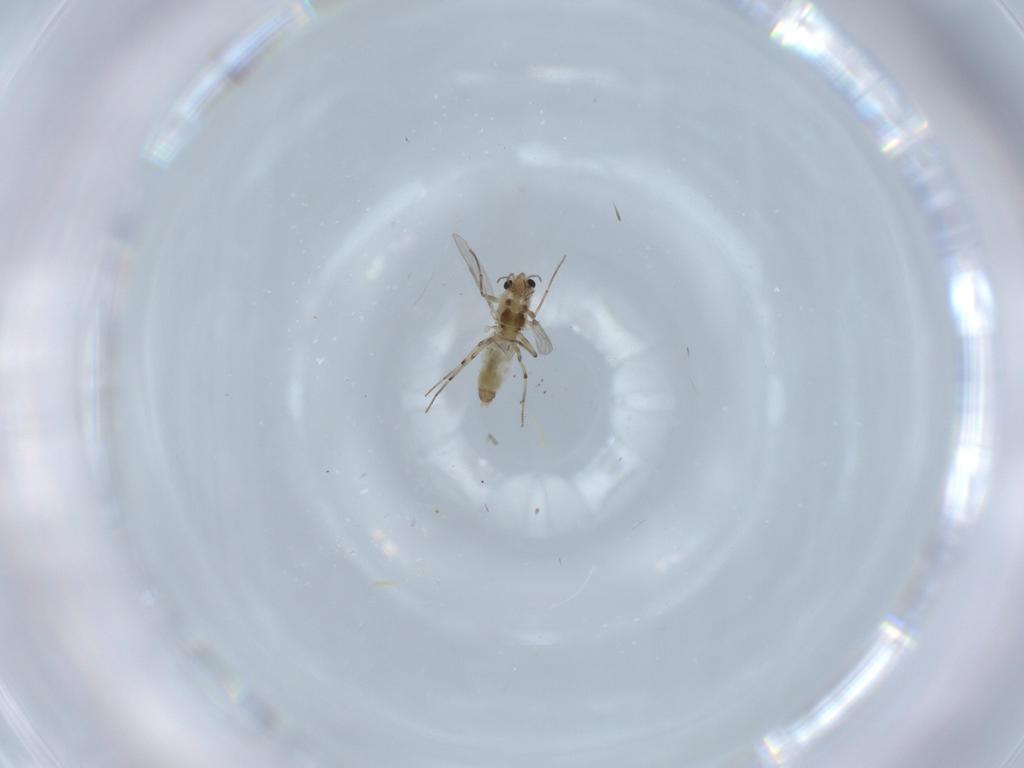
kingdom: Animalia
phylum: Arthropoda
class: Insecta
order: Diptera
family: Chironomidae
